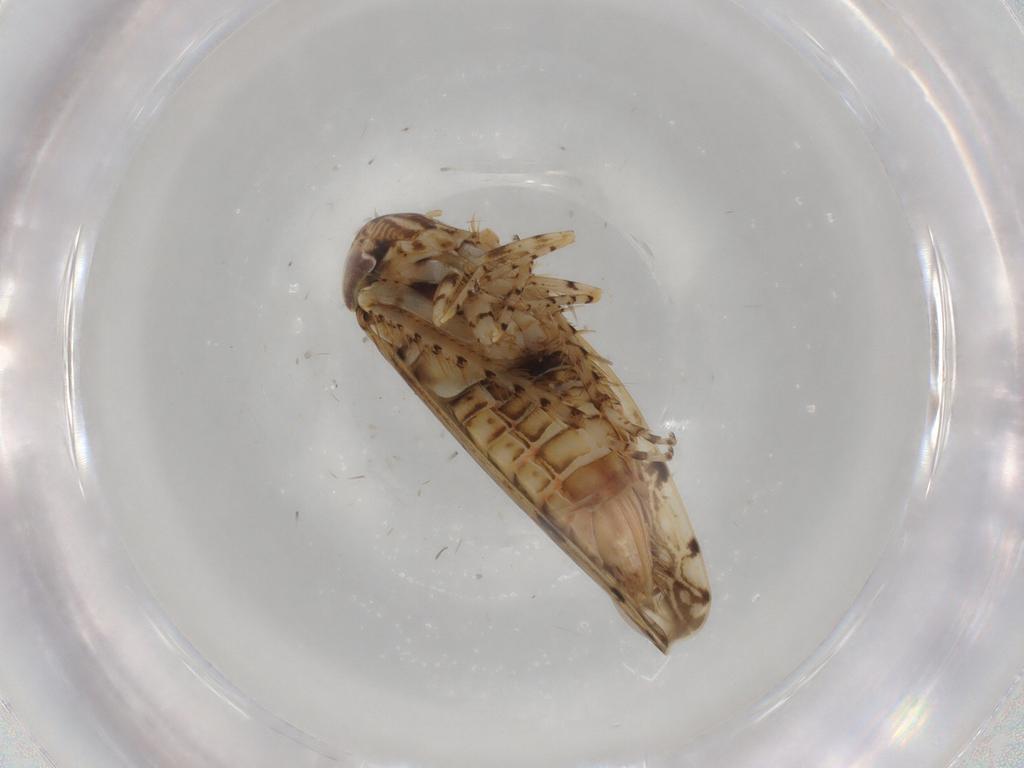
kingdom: Animalia
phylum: Arthropoda
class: Insecta
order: Hemiptera
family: Cicadellidae
